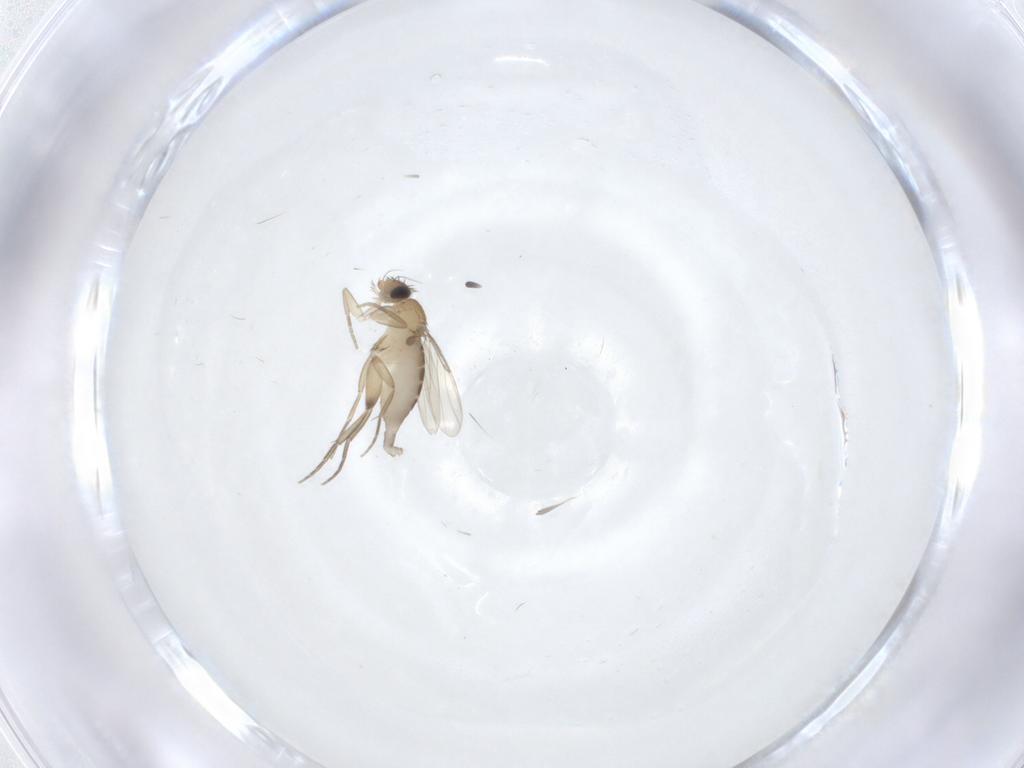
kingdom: Animalia
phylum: Arthropoda
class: Insecta
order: Diptera
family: Phoridae
